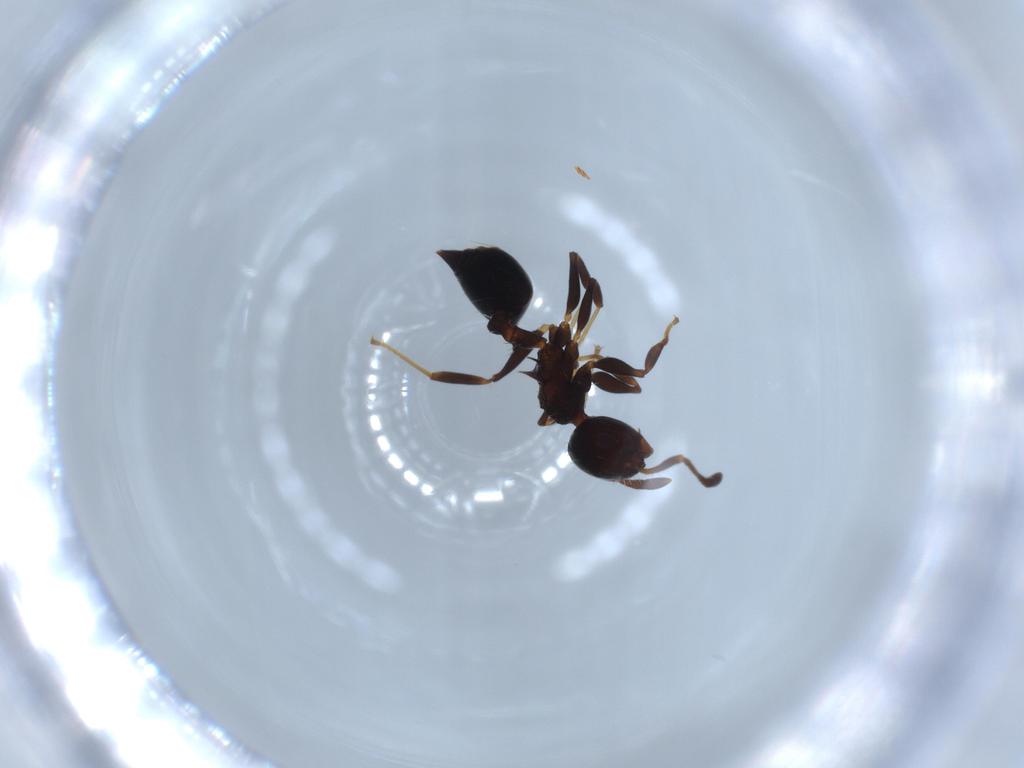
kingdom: Animalia
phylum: Arthropoda
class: Insecta
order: Hymenoptera
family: Formicidae
